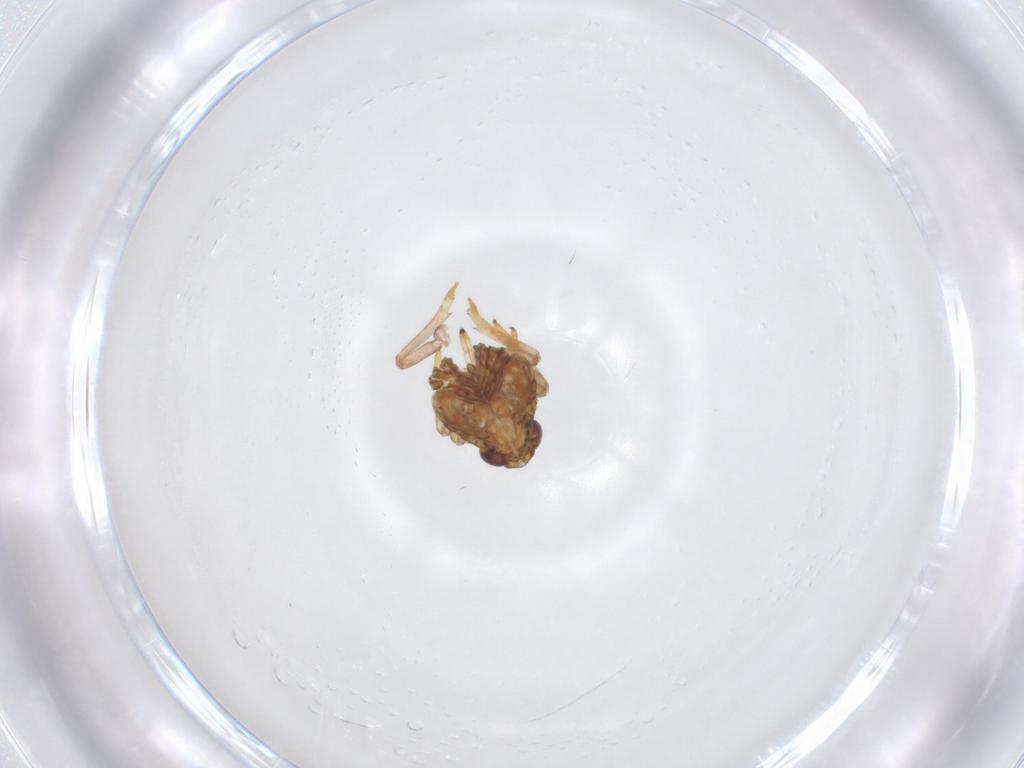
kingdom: Animalia
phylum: Arthropoda
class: Insecta
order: Hemiptera
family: Issidae
